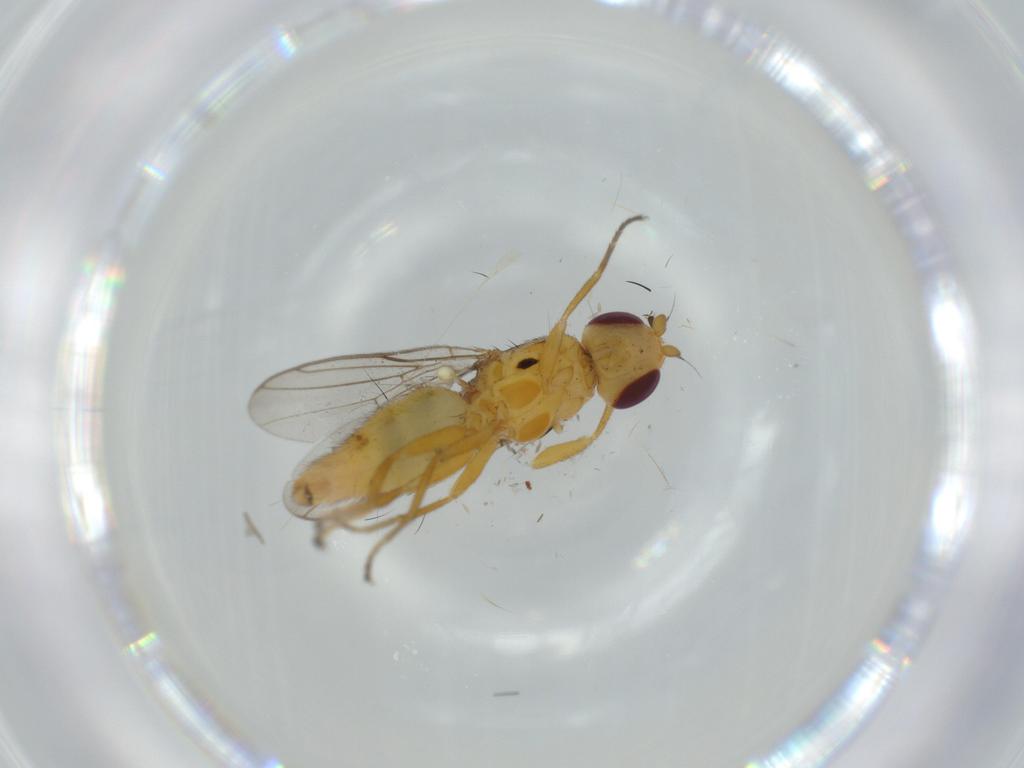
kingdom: Animalia
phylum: Arthropoda
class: Insecta
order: Diptera
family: Chloropidae
